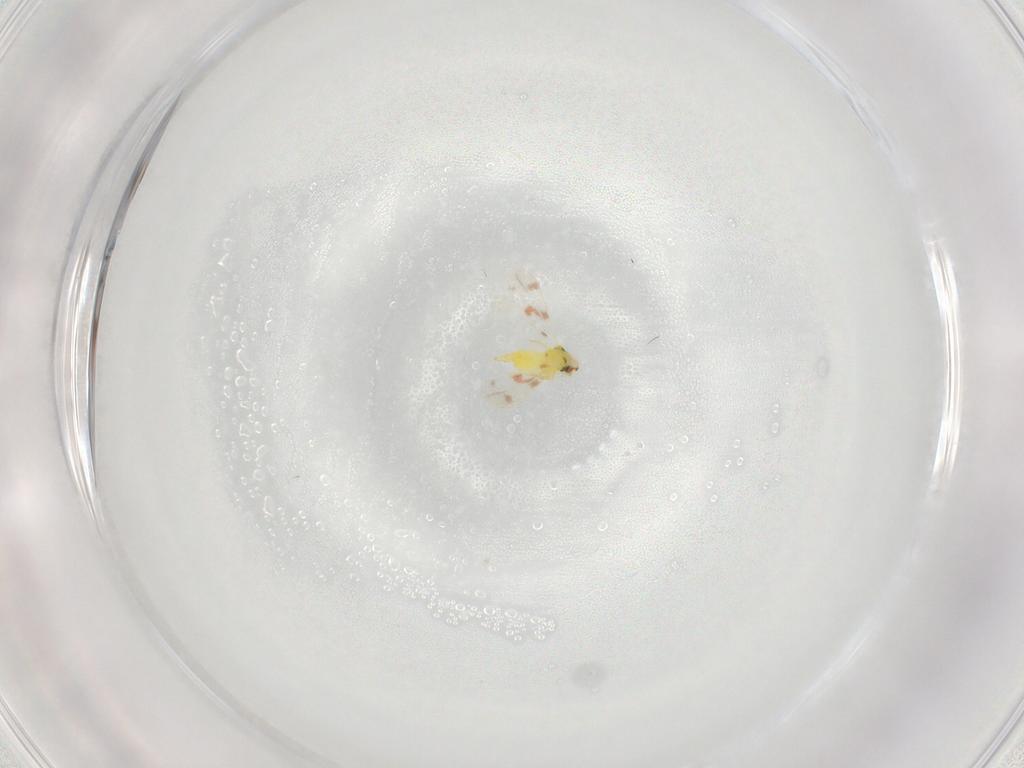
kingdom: Animalia
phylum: Arthropoda
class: Insecta
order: Hemiptera
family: Aleyrodidae
